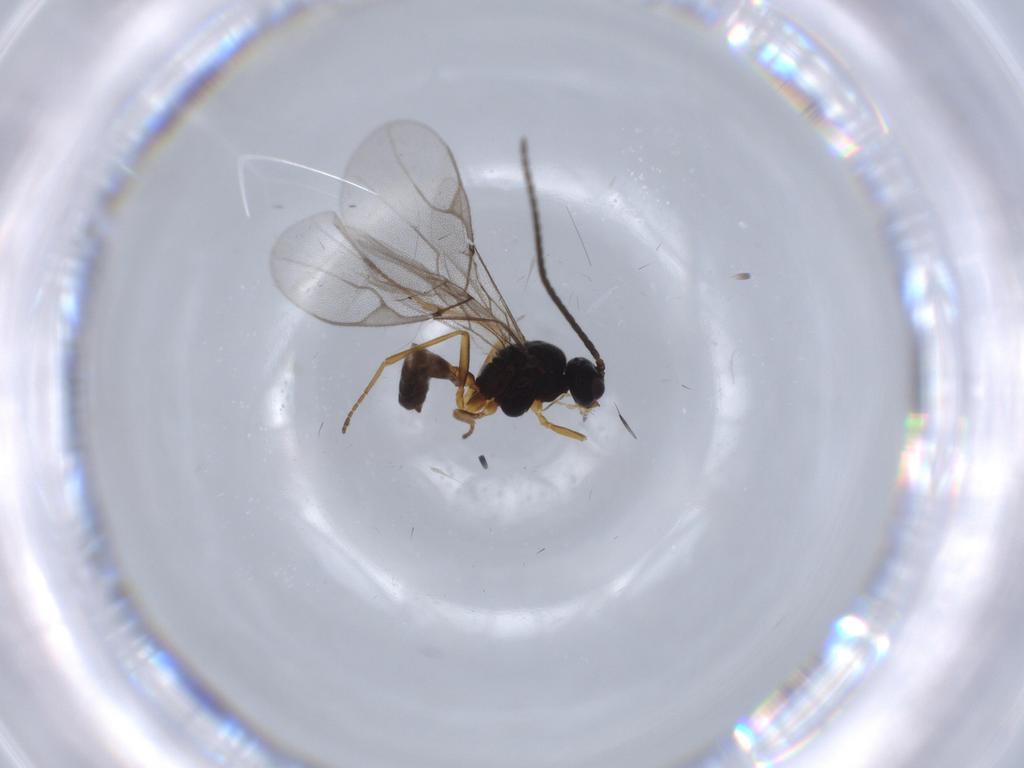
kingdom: Animalia
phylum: Arthropoda
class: Insecta
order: Hymenoptera
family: Braconidae
